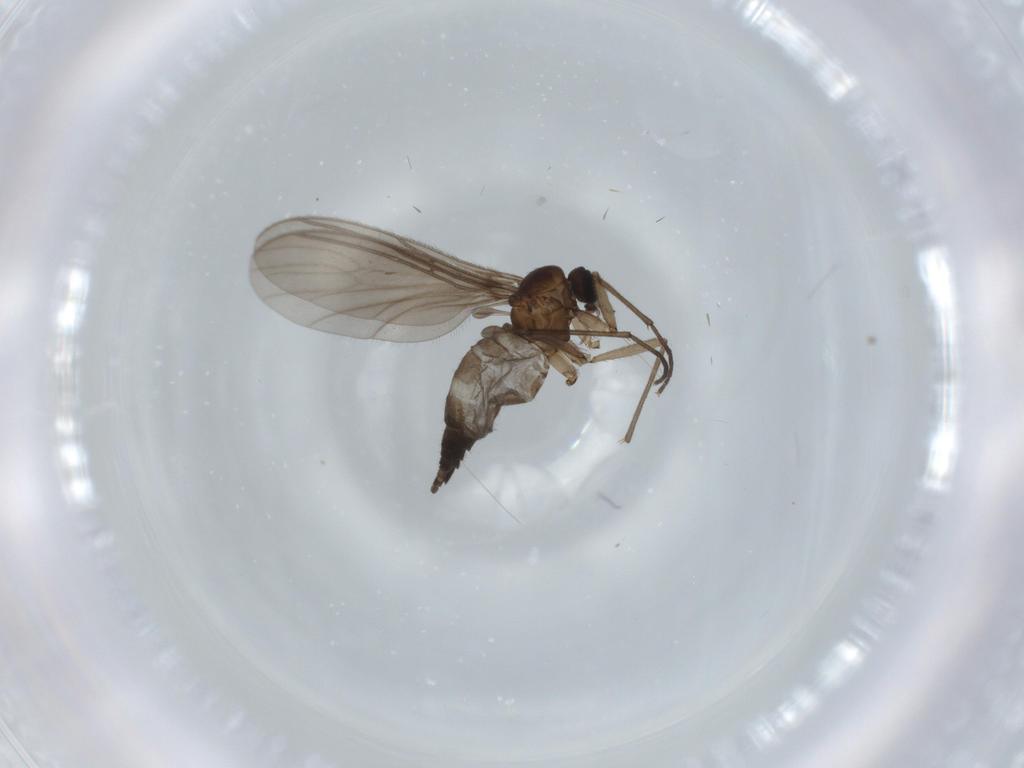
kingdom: Animalia
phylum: Arthropoda
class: Insecta
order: Diptera
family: Sciaridae
